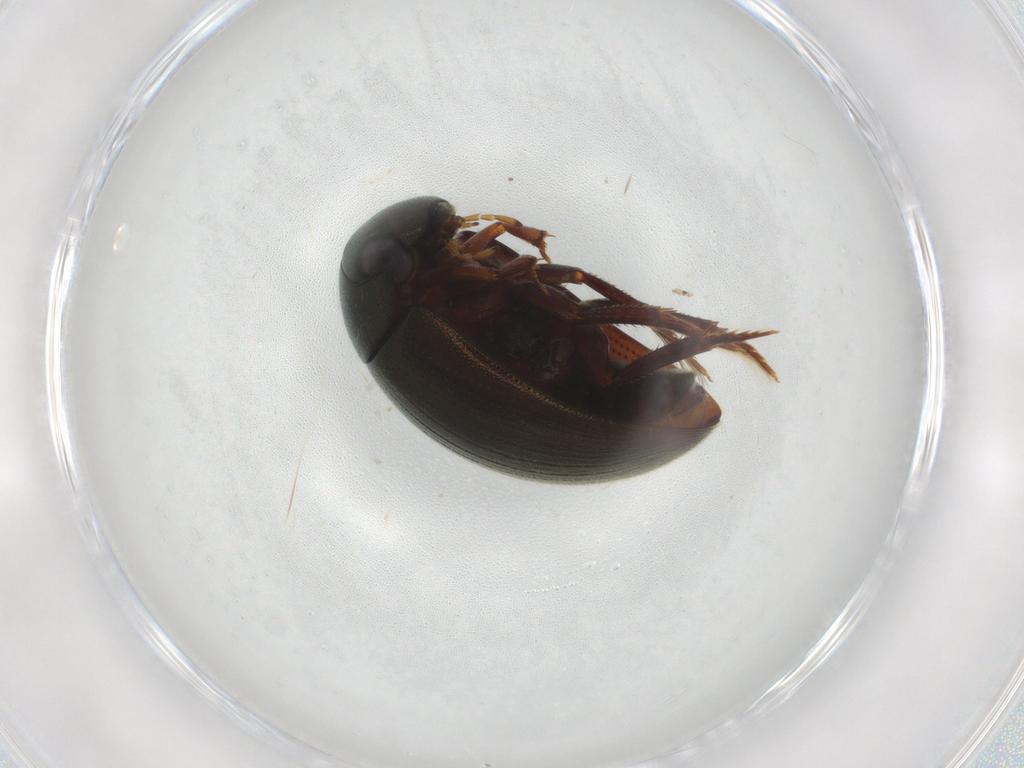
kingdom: Animalia
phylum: Arthropoda
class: Insecta
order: Coleoptera
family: Hydrophilidae
